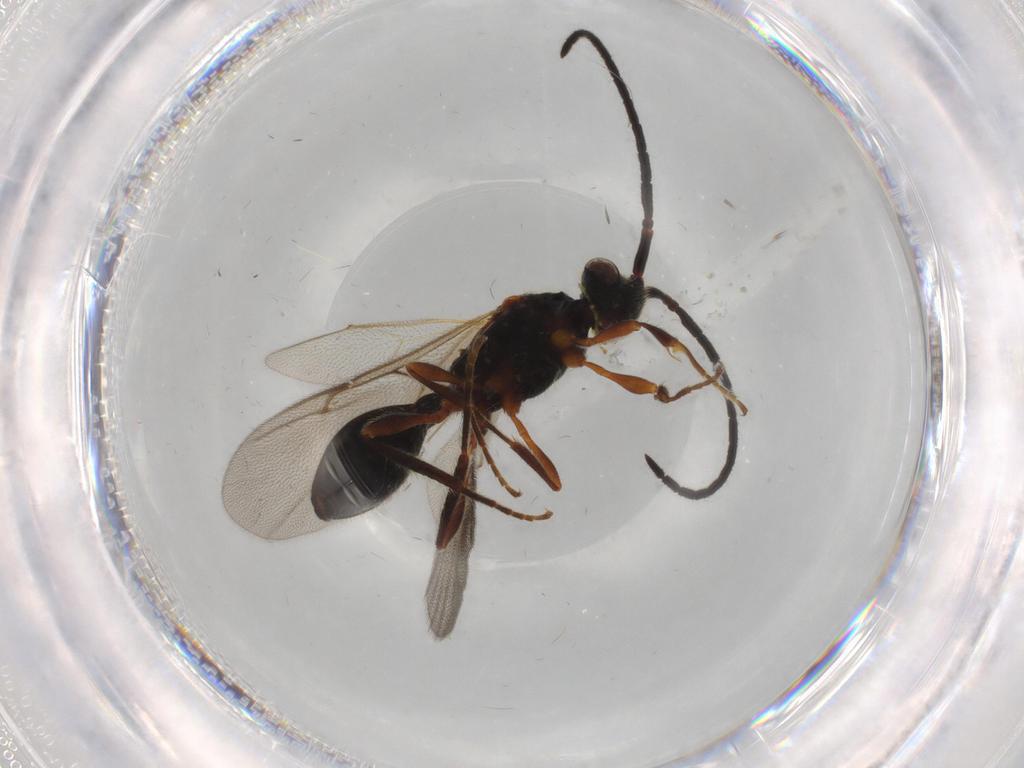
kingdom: Animalia
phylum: Arthropoda
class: Insecta
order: Hymenoptera
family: Diapriidae
